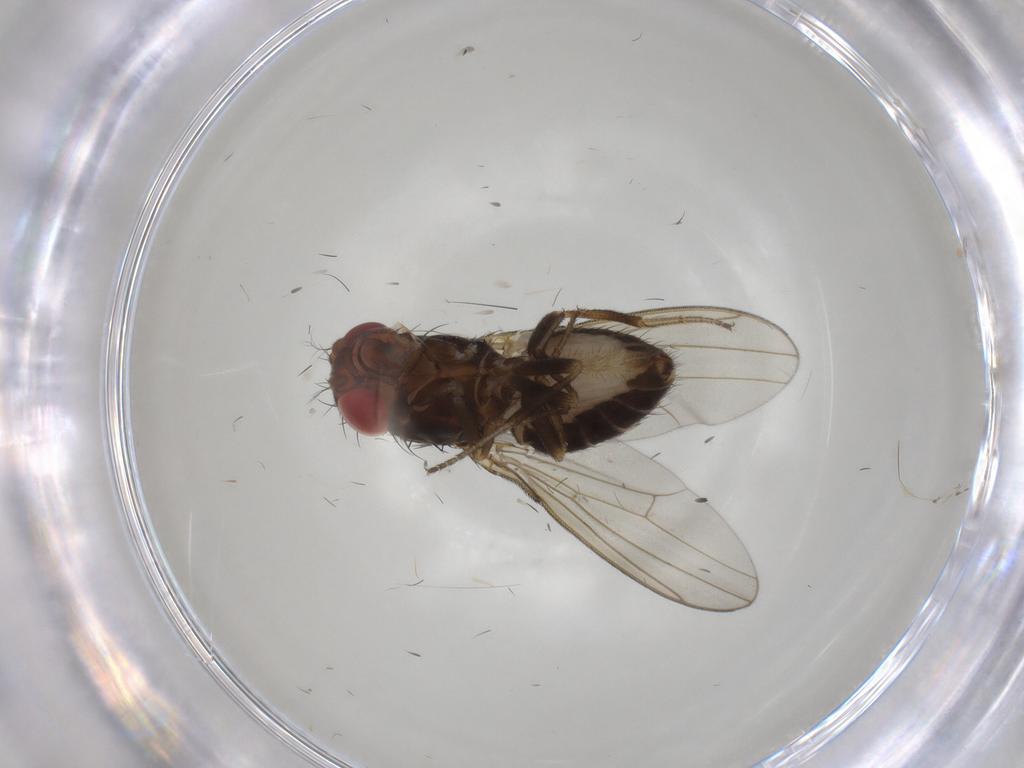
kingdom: Animalia
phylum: Arthropoda
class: Insecta
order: Diptera
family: Drosophilidae
